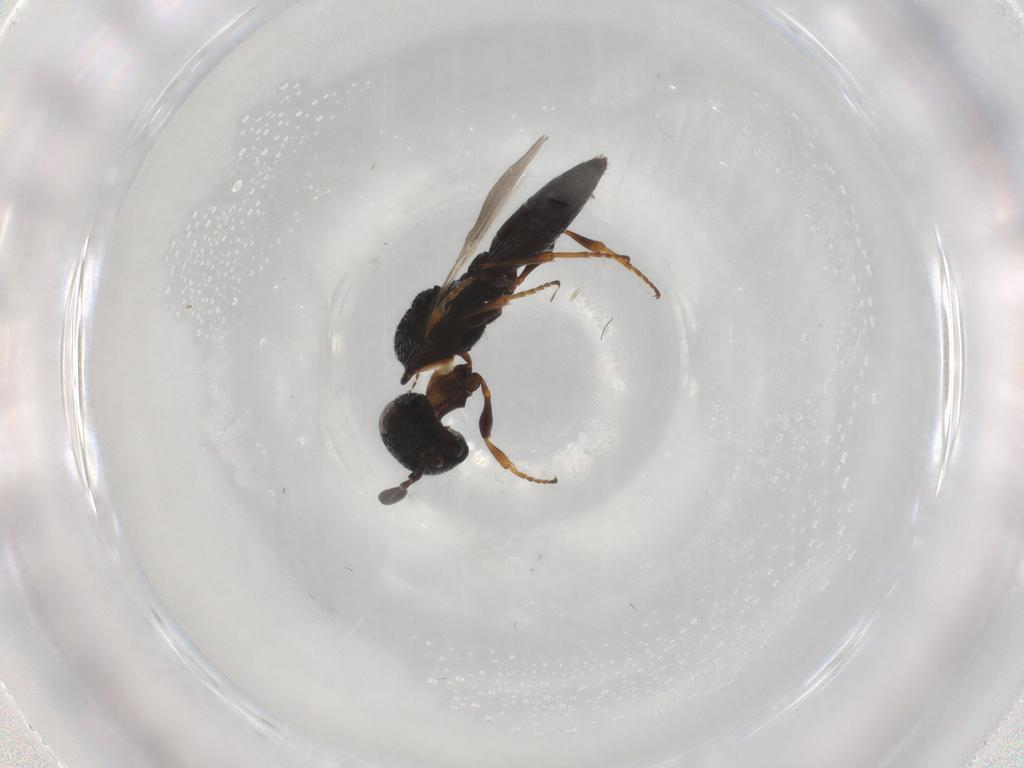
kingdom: Animalia
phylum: Arthropoda
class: Insecta
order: Hymenoptera
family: Scelionidae
